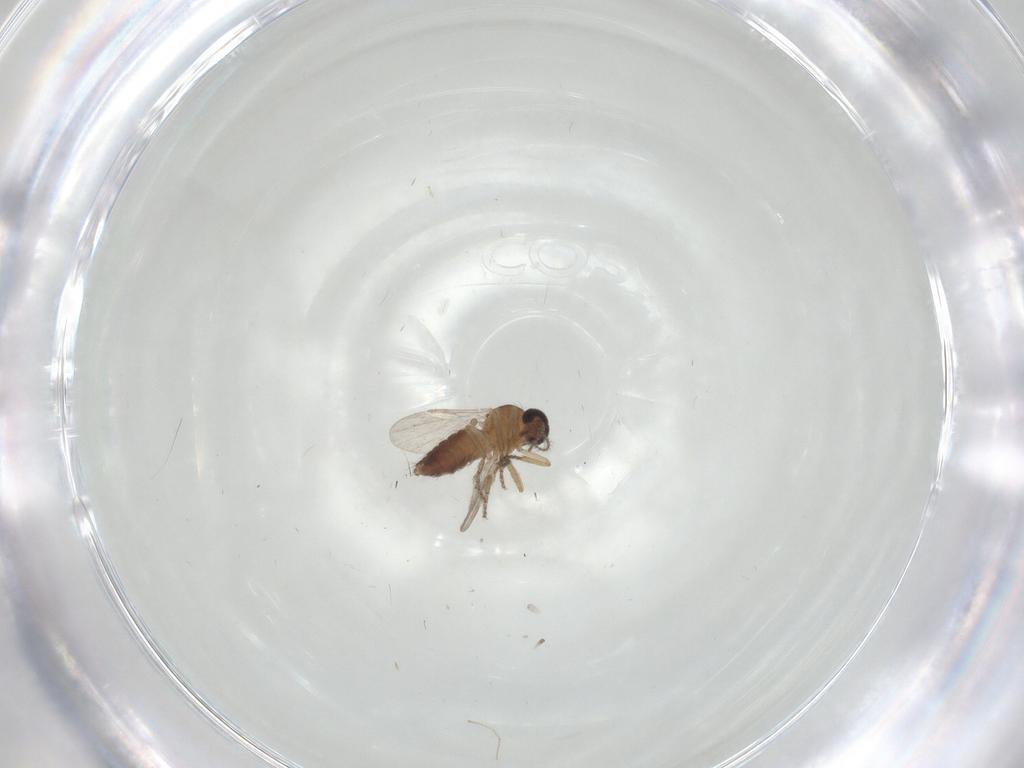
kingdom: Animalia
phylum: Arthropoda
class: Insecta
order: Diptera
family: Ceratopogonidae
